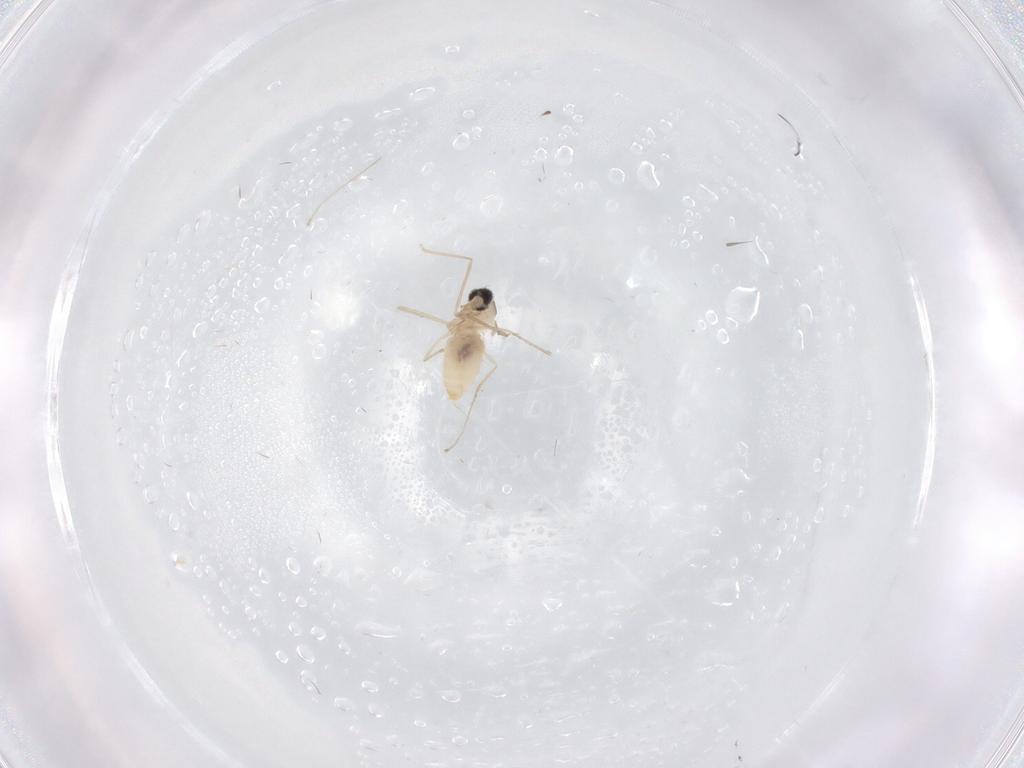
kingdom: Animalia
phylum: Arthropoda
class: Insecta
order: Diptera
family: Cecidomyiidae
